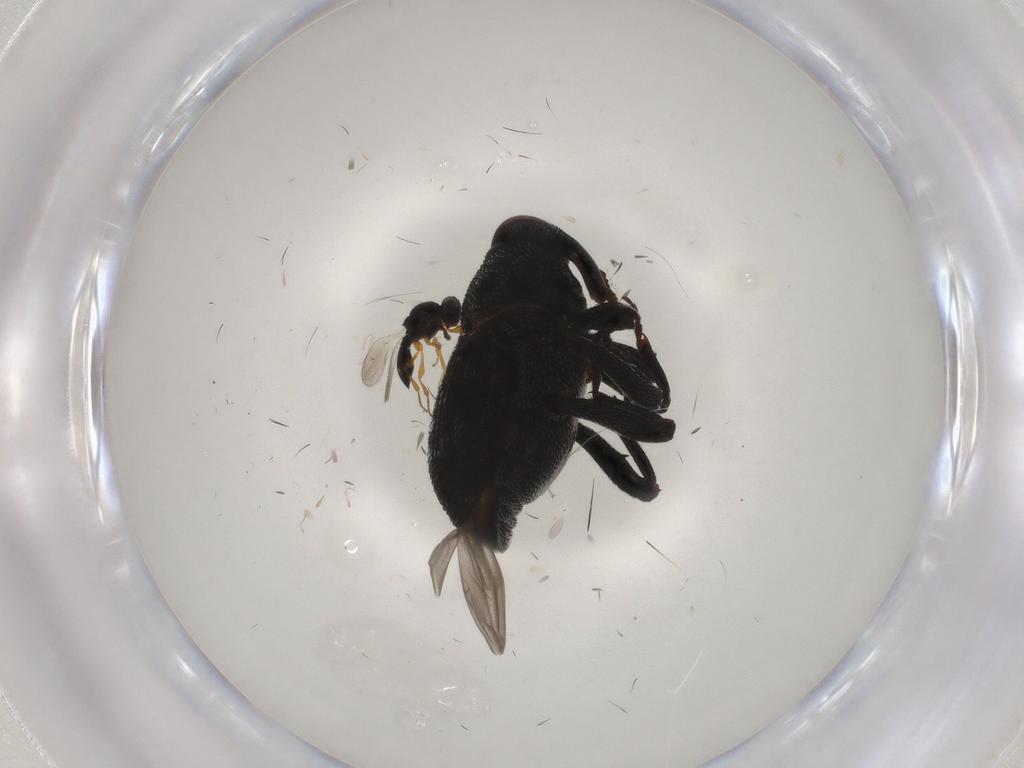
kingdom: Animalia
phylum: Arthropoda
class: Insecta
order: Coleoptera
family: Curculionidae
